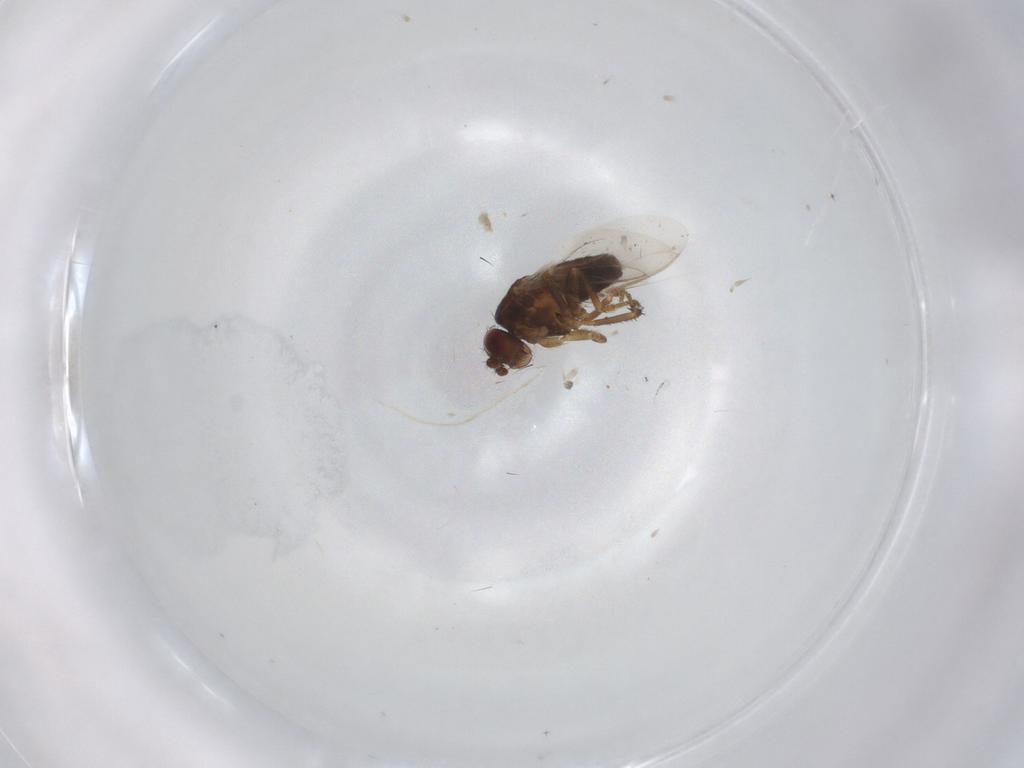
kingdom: Animalia
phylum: Arthropoda
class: Insecta
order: Diptera
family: Sphaeroceridae
